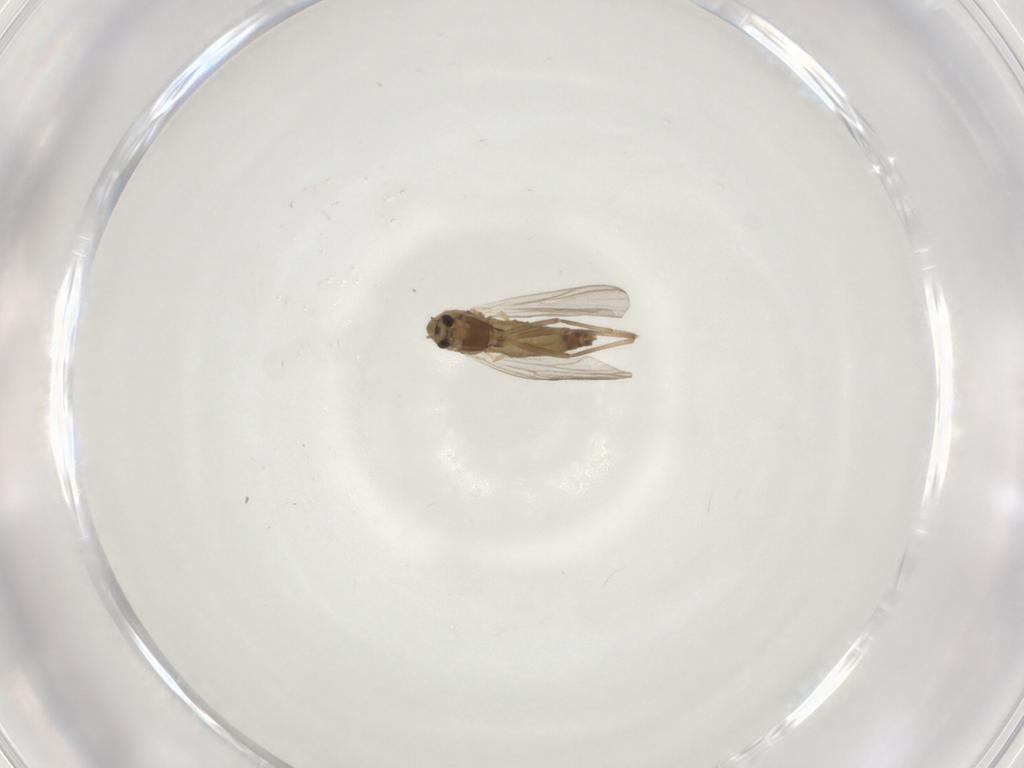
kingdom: Animalia
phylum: Arthropoda
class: Insecta
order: Diptera
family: Chironomidae
